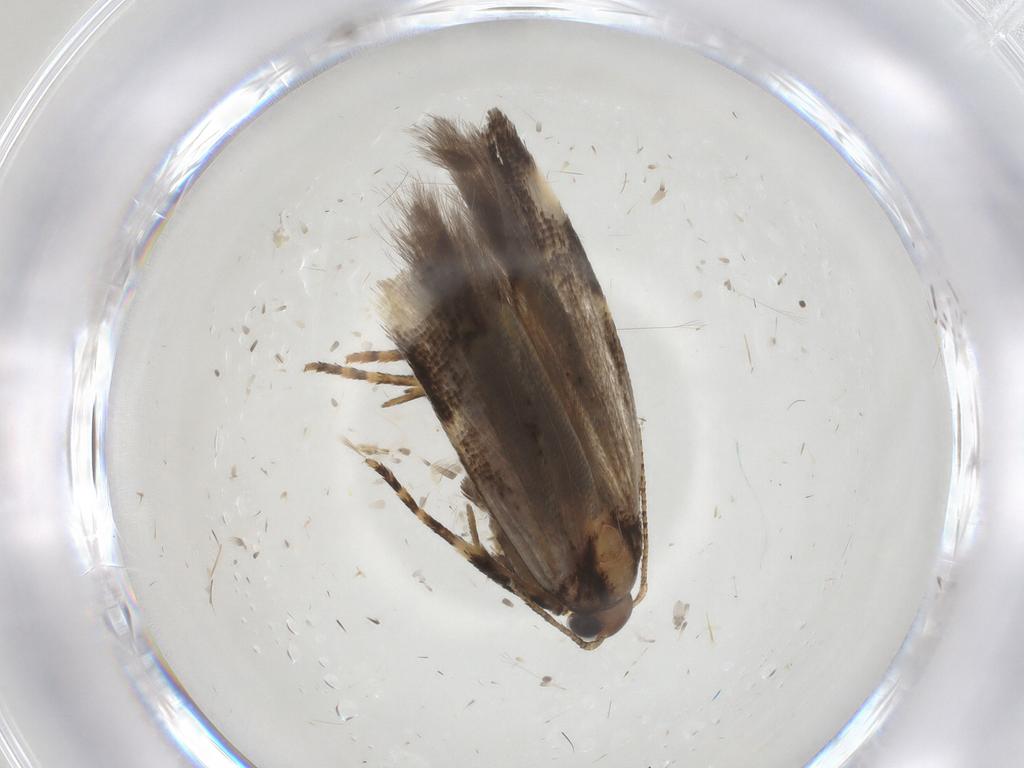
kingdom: Animalia
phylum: Arthropoda
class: Insecta
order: Lepidoptera
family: Gelechiidae
